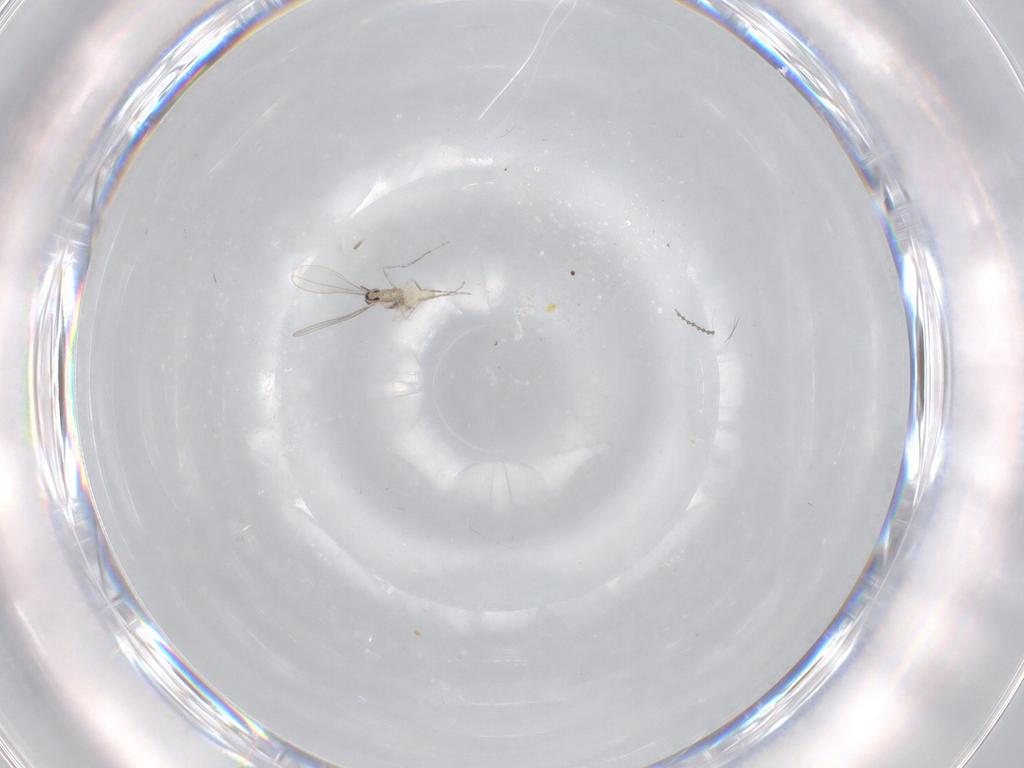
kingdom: Animalia
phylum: Arthropoda
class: Insecta
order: Diptera
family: Cecidomyiidae
